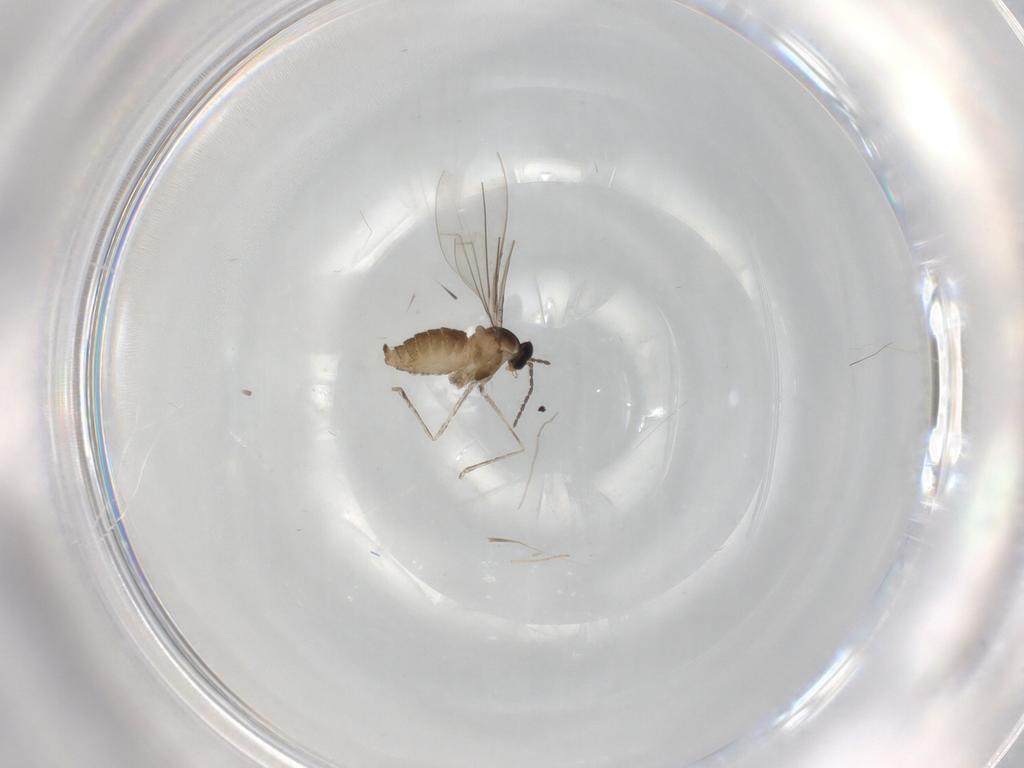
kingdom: Animalia
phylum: Arthropoda
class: Insecta
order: Diptera
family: Cecidomyiidae
